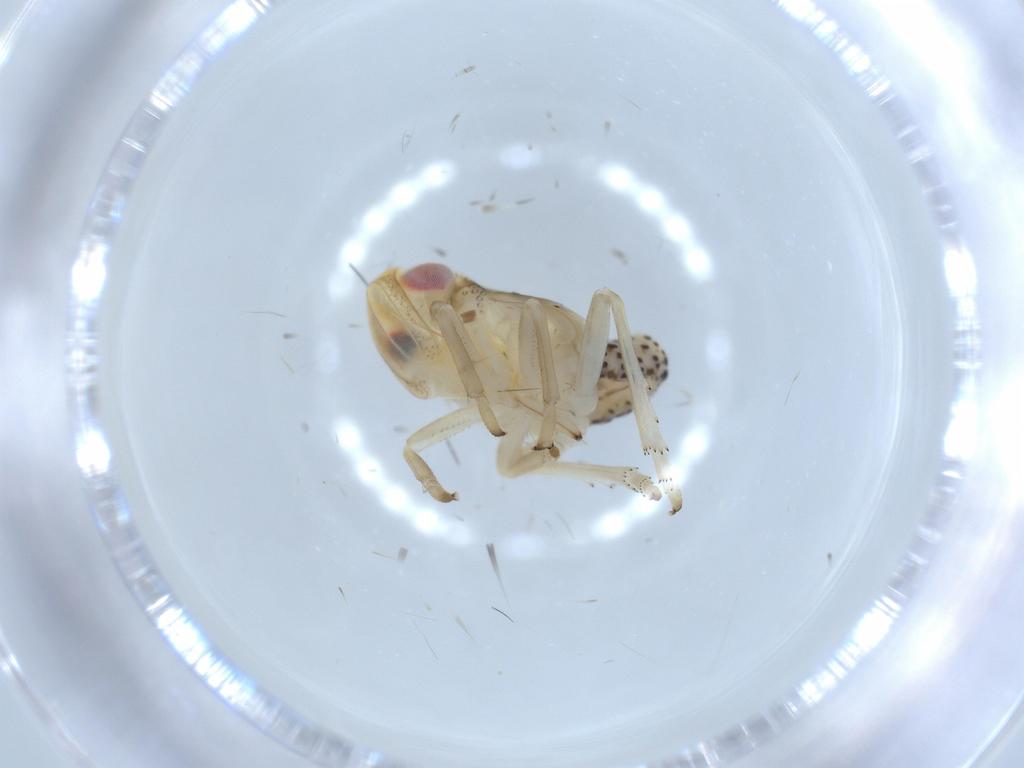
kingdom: Animalia
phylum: Arthropoda
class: Insecta
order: Hemiptera
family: Tropiduchidae
